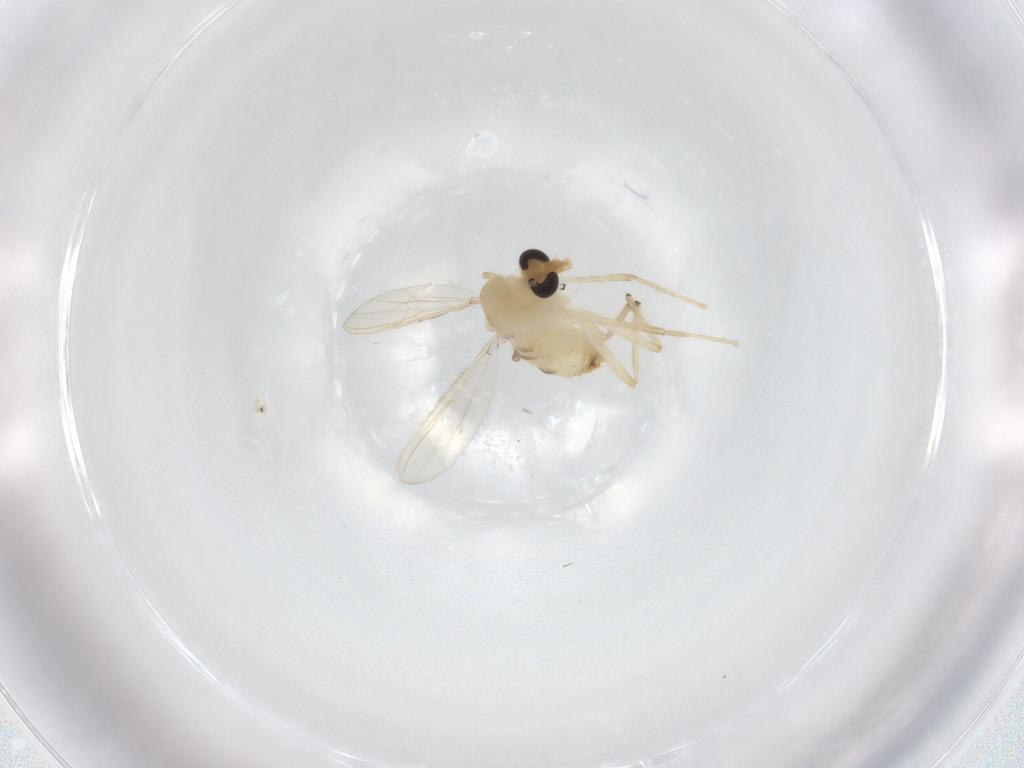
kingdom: Animalia
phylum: Arthropoda
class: Insecta
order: Diptera
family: Chironomidae
